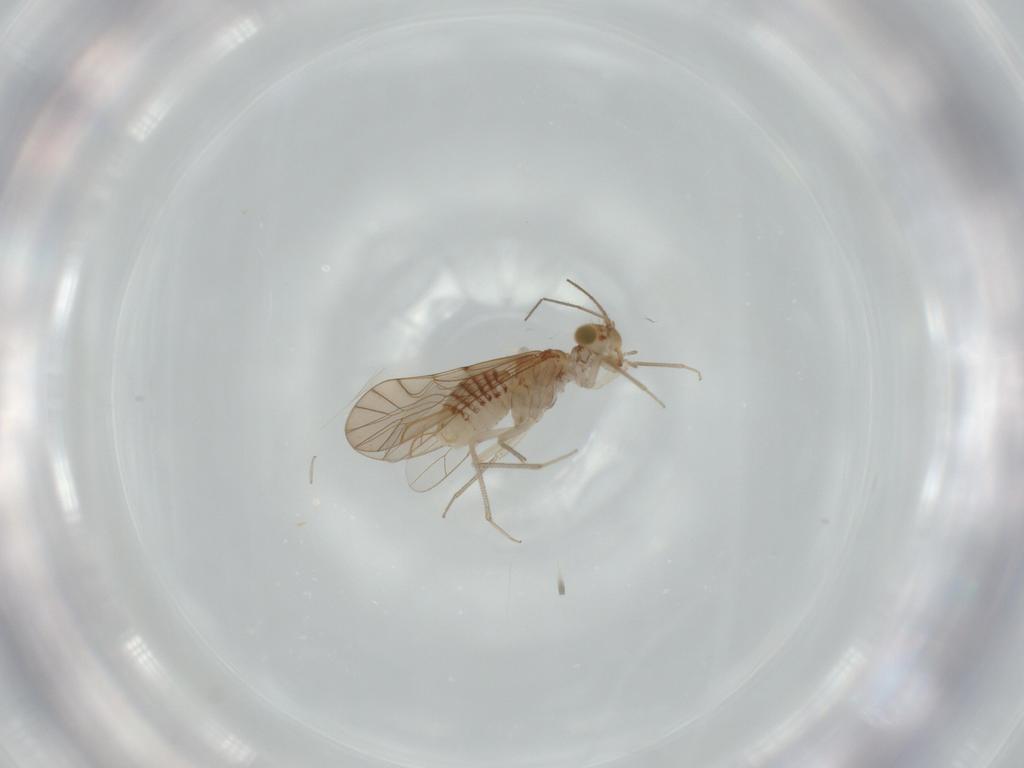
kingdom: Animalia
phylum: Arthropoda
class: Insecta
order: Psocodea
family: Lachesillidae
